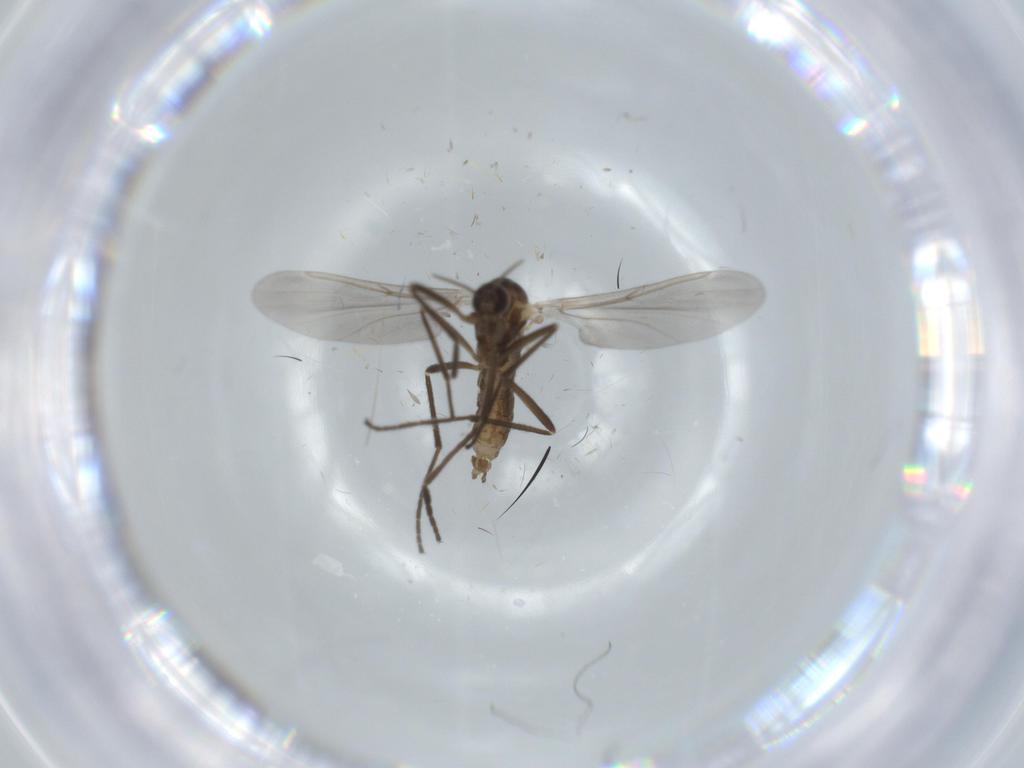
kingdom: Animalia
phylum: Arthropoda
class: Insecta
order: Diptera
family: Cecidomyiidae
